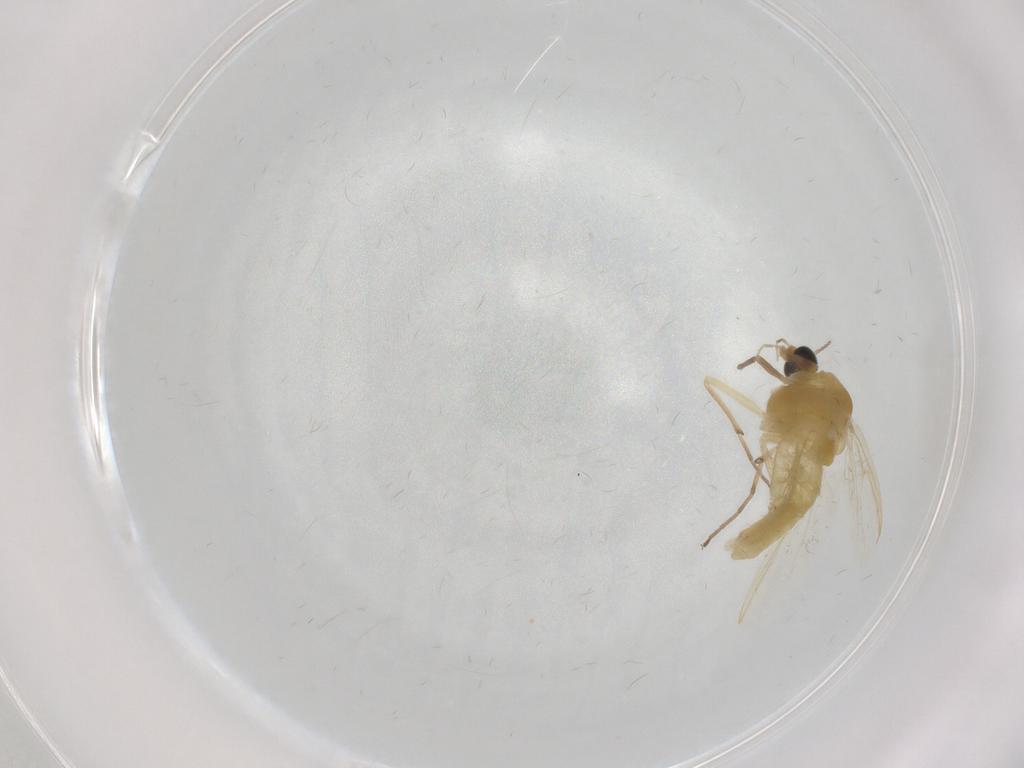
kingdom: Animalia
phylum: Arthropoda
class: Insecta
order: Diptera
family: Chironomidae
